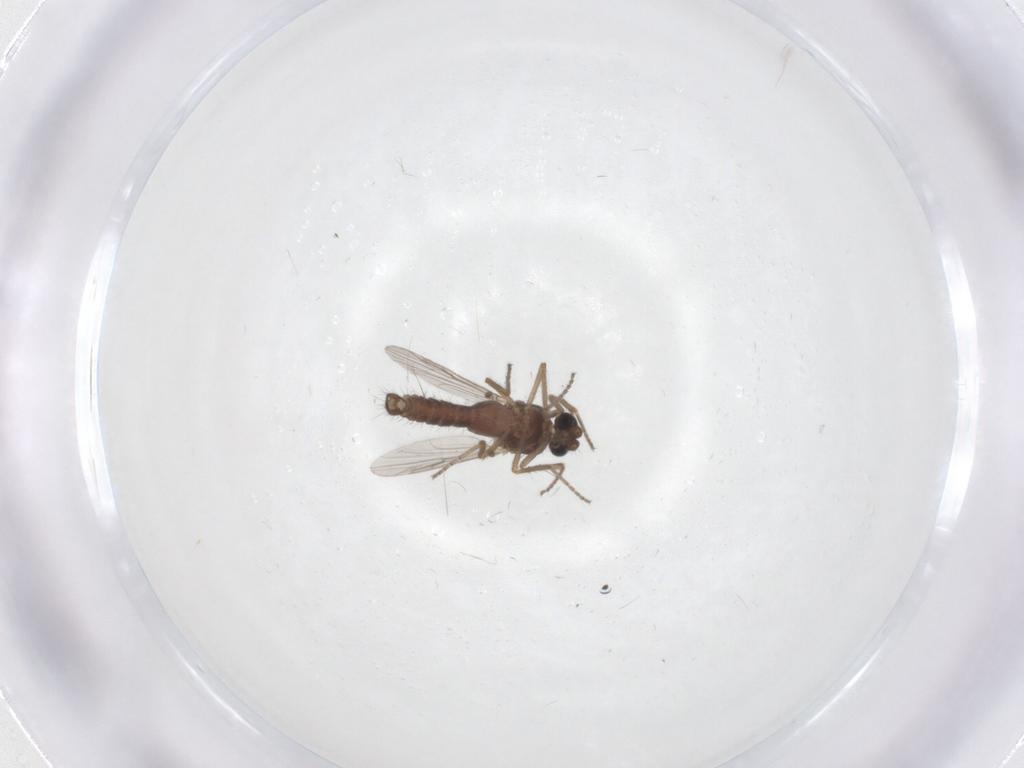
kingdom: Animalia
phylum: Arthropoda
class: Insecta
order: Diptera
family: Ceratopogonidae
